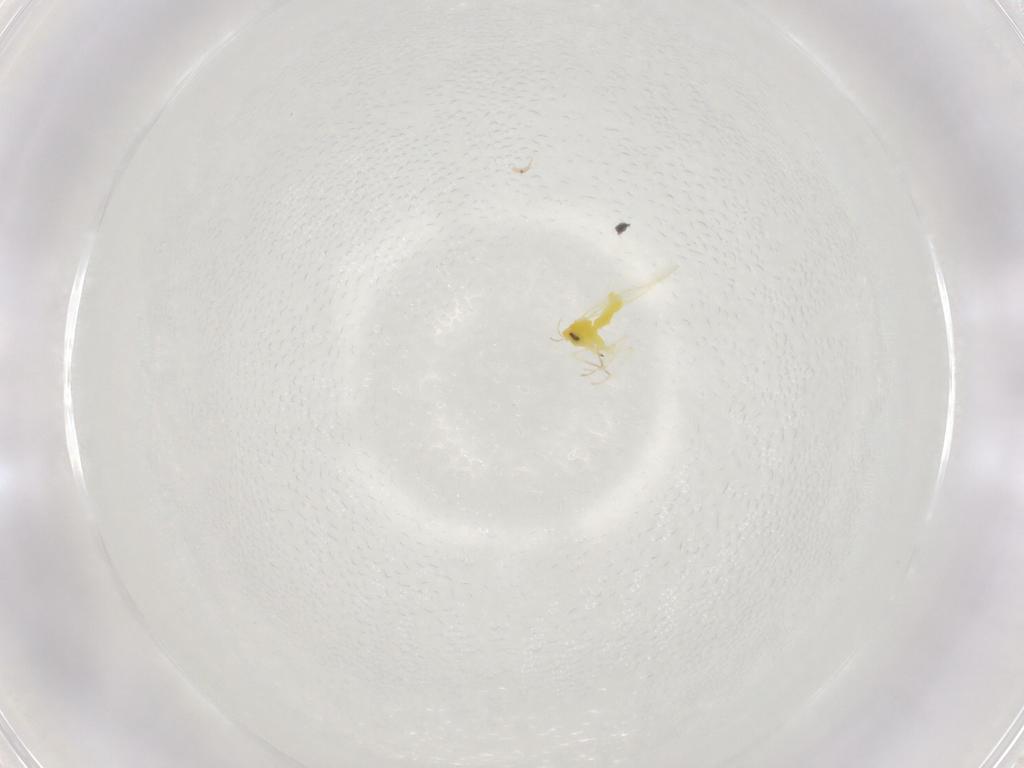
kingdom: Animalia
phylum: Arthropoda
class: Insecta
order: Hemiptera
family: Aleyrodidae
